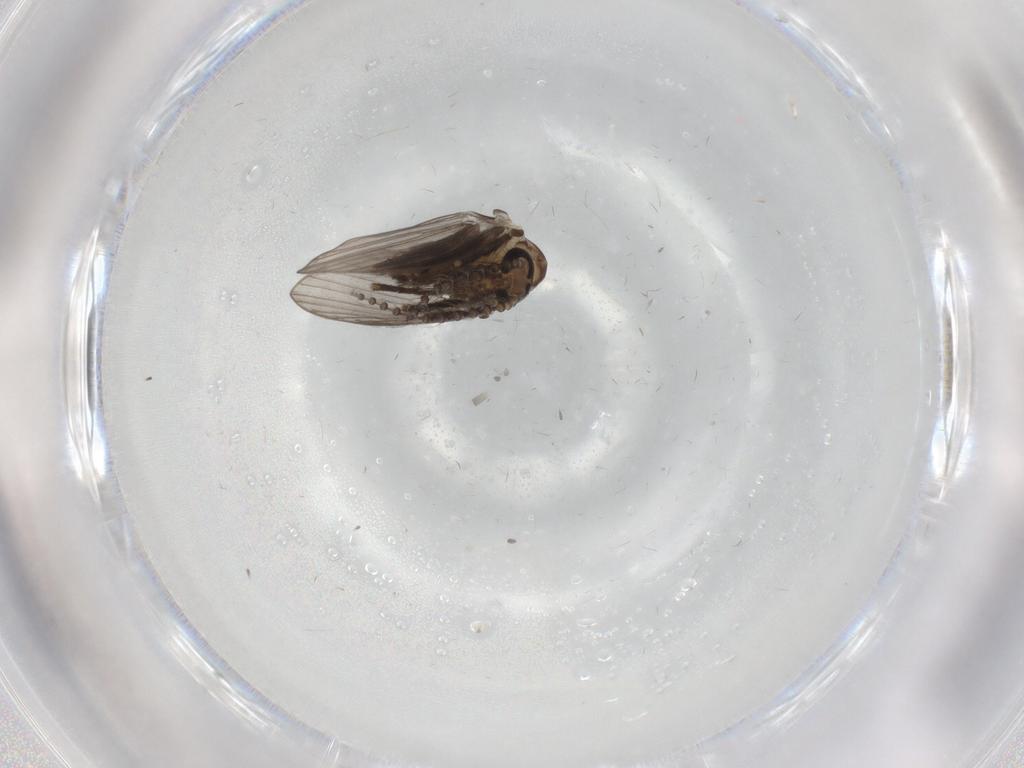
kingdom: Animalia
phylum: Arthropoda
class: Insecta
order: Diptera
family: Psychodidae
